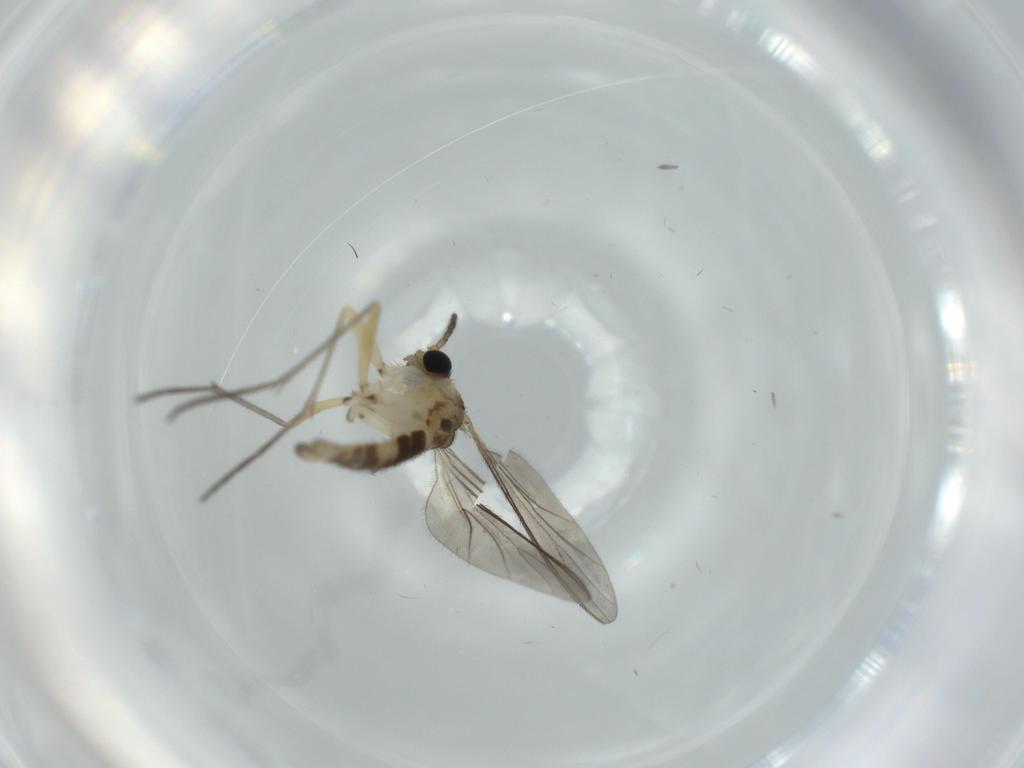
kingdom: Animalia
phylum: Arthropoda
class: Insecta
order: Diptera
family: Sciaridae
